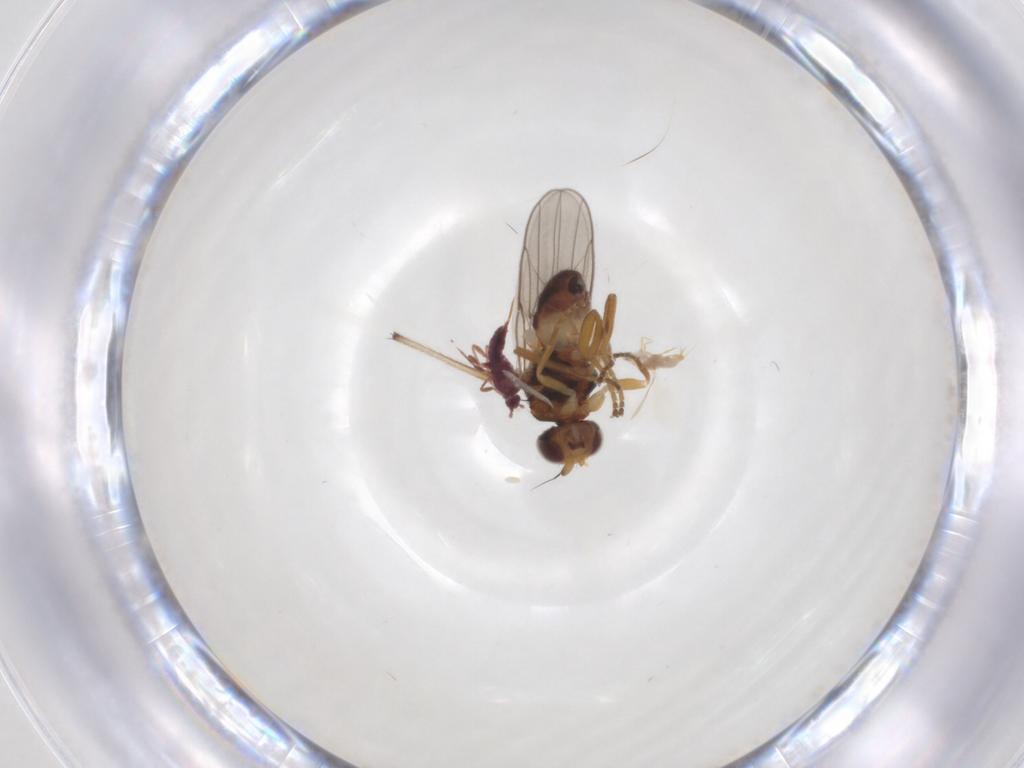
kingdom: Animalia
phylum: Arthropoda
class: Insecta
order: Diptera
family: Chloropidae
